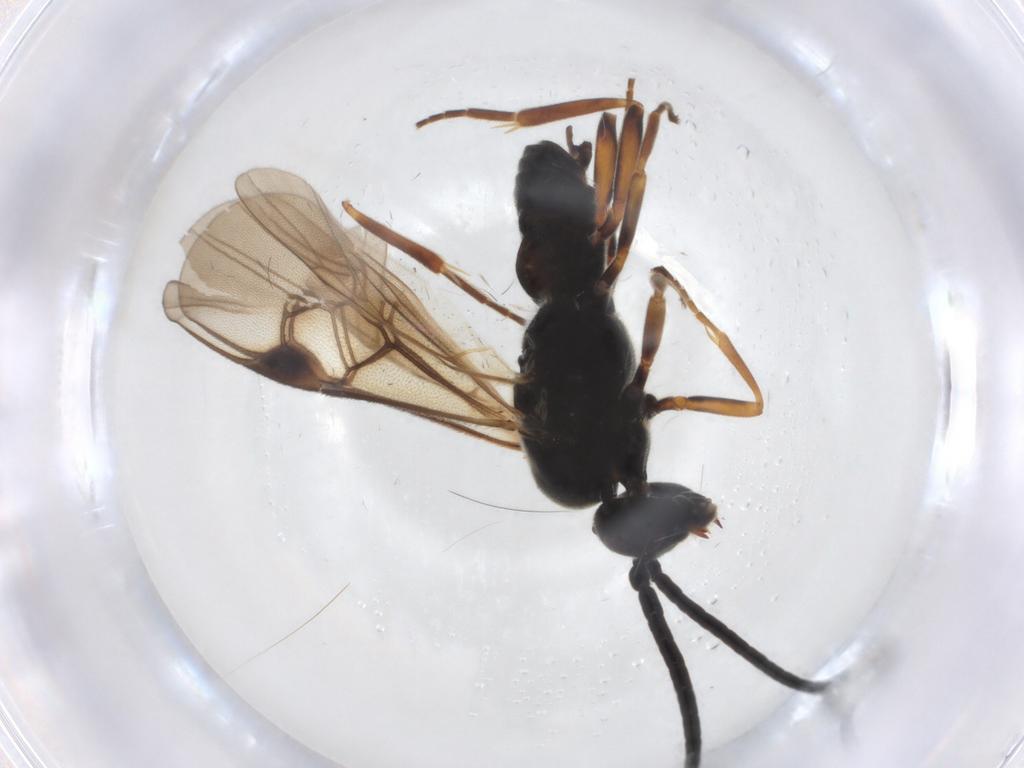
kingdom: Animalia
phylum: Arthropoda
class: Insecta
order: Hymenoptera
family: Braconidae
